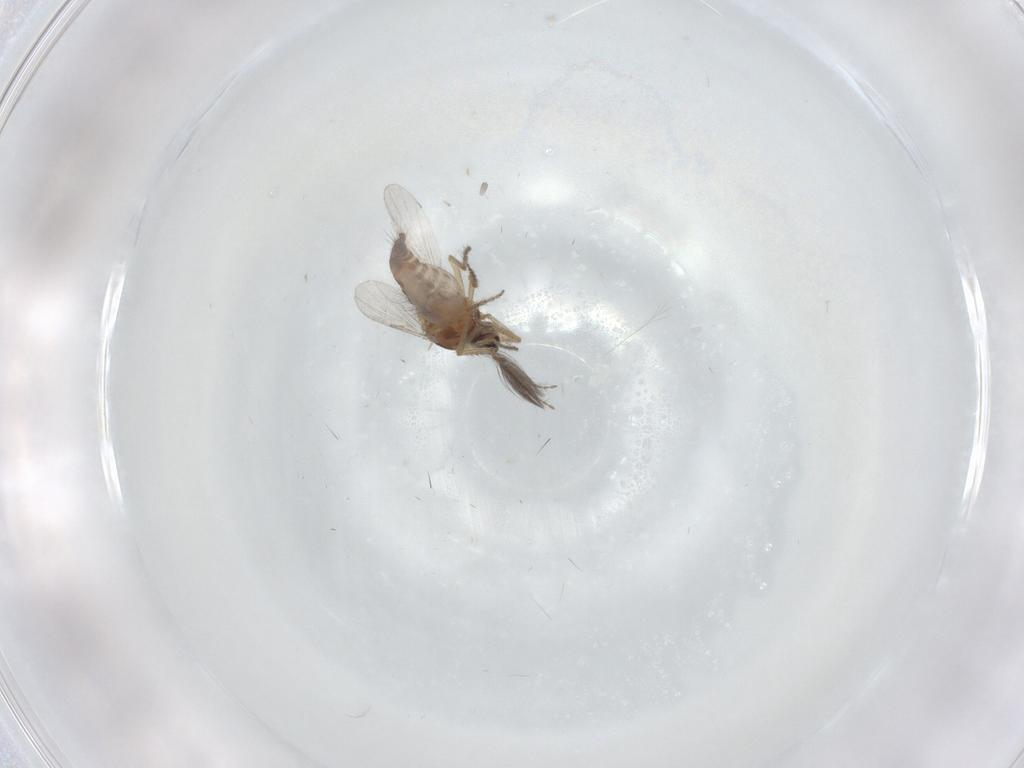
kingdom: Animalia
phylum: Arthropoda
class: Insecta
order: Diptera
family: Ceratopogonidae
